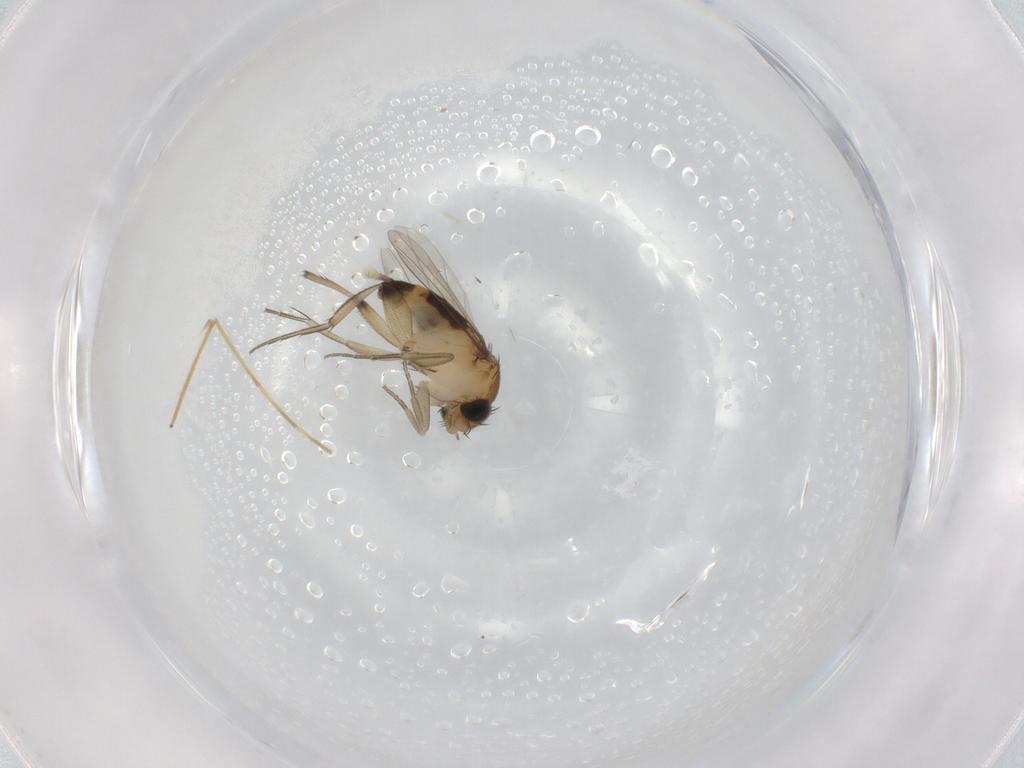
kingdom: Animalia
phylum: Arthropoda
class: Insecta
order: Diptera
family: Phoridae
